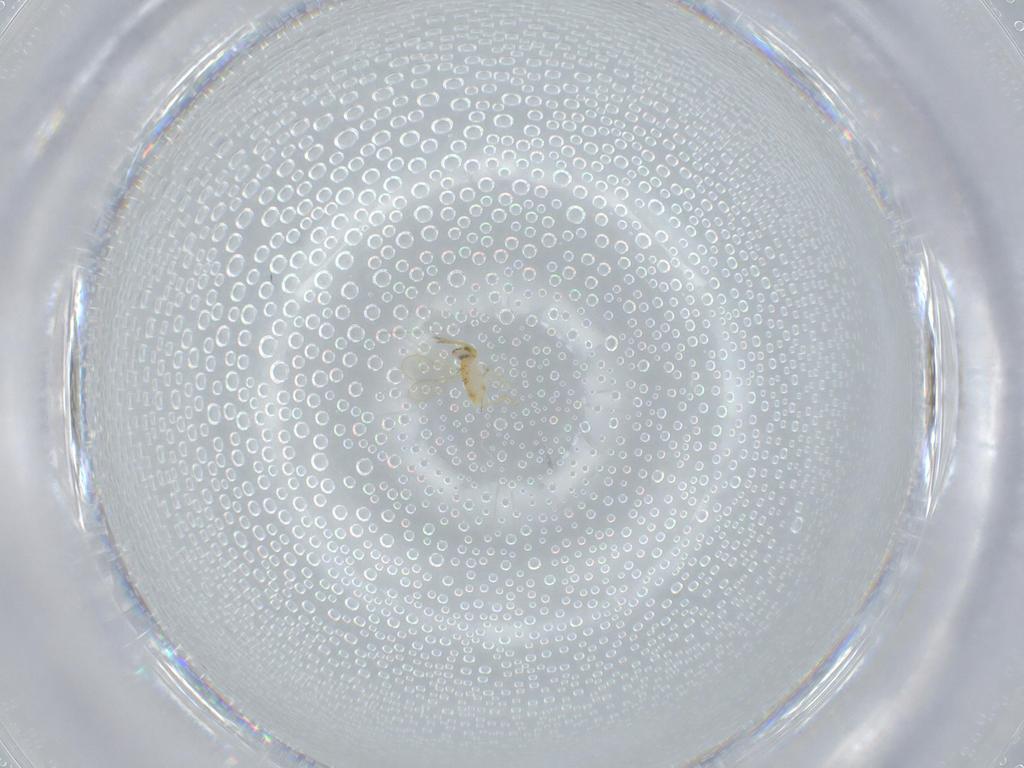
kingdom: Animalia
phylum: Arthropoda
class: Insecta
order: Hymenoptera
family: Aphelinidae
